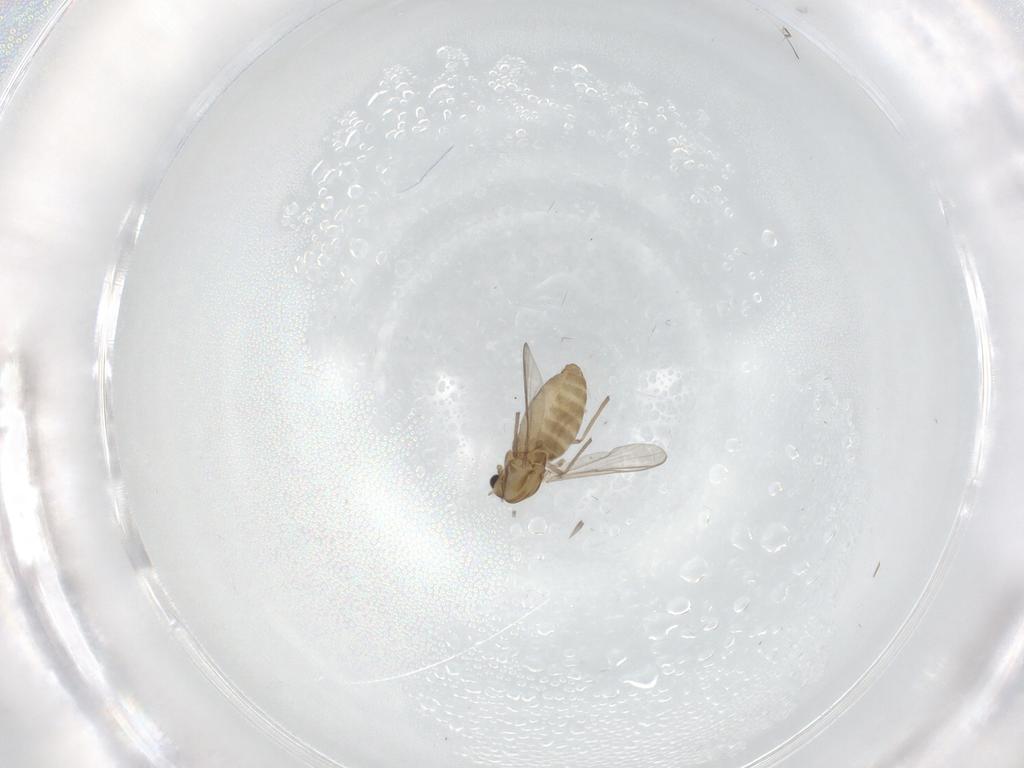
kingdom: Animalia
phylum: Arthropoda
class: Insecta
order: Diptera
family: Chironomidae
